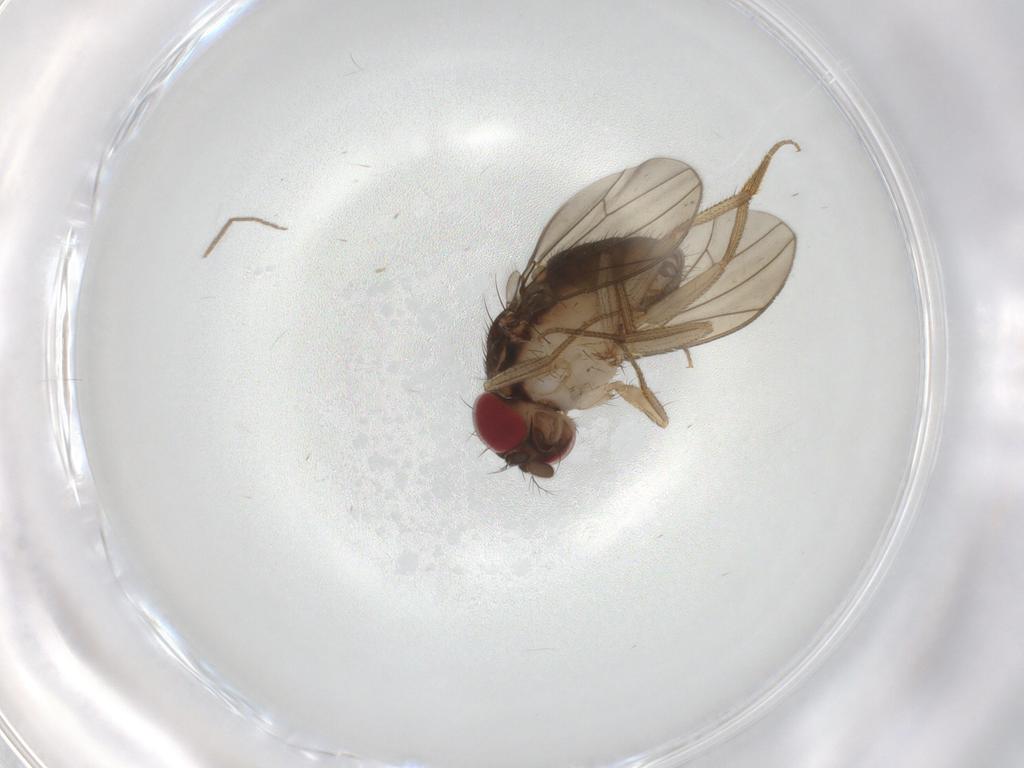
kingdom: Animalia
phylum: Arthropoda
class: Insecta
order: Diptera
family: Drosophilidae
